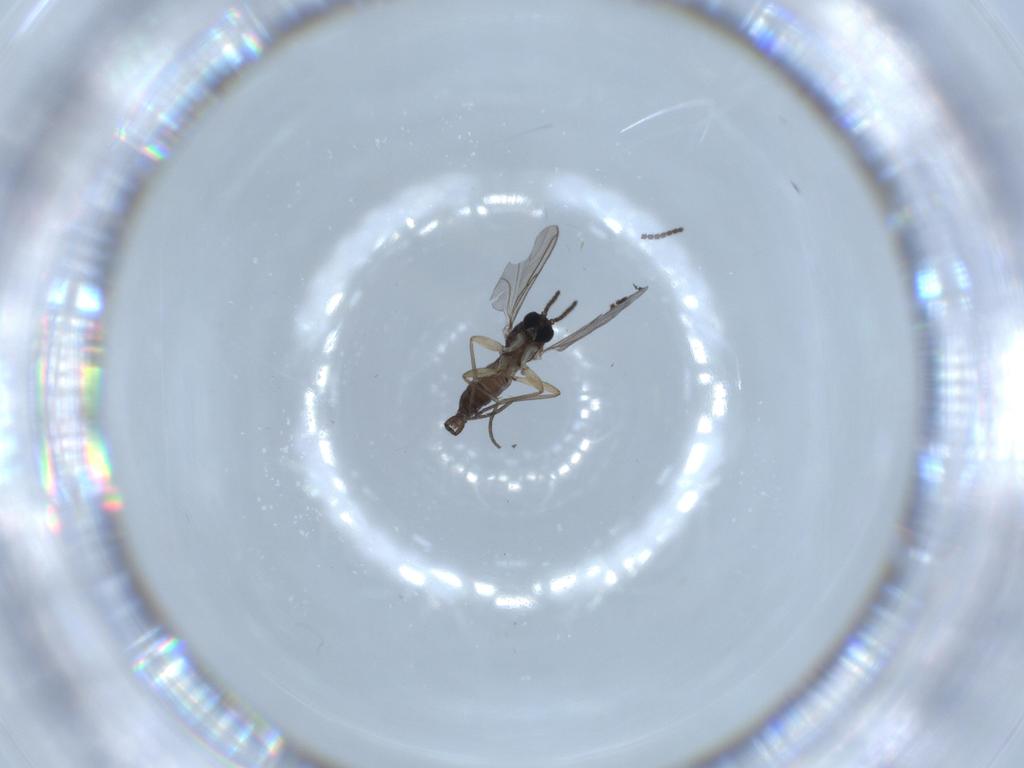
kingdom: Animalia
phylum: Arthropoda
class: Insecta
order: Diptera
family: Sciaridae
